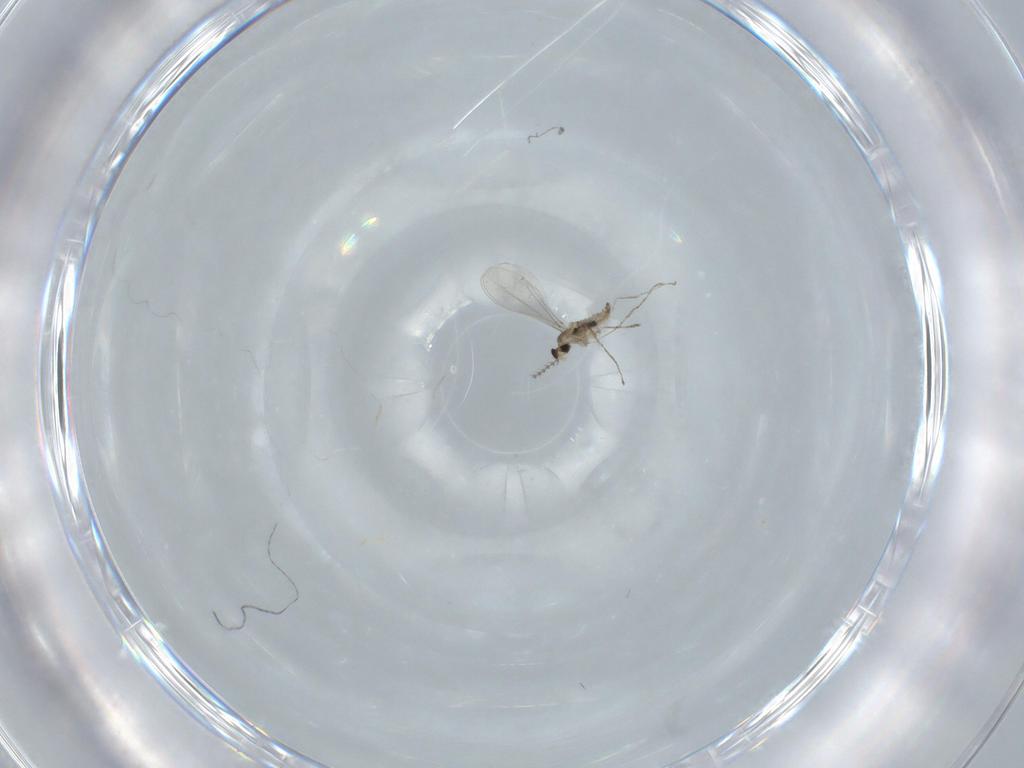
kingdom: Animalia
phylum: Arthropoda
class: Insecta
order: Diptera
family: Cecidomyiidae
